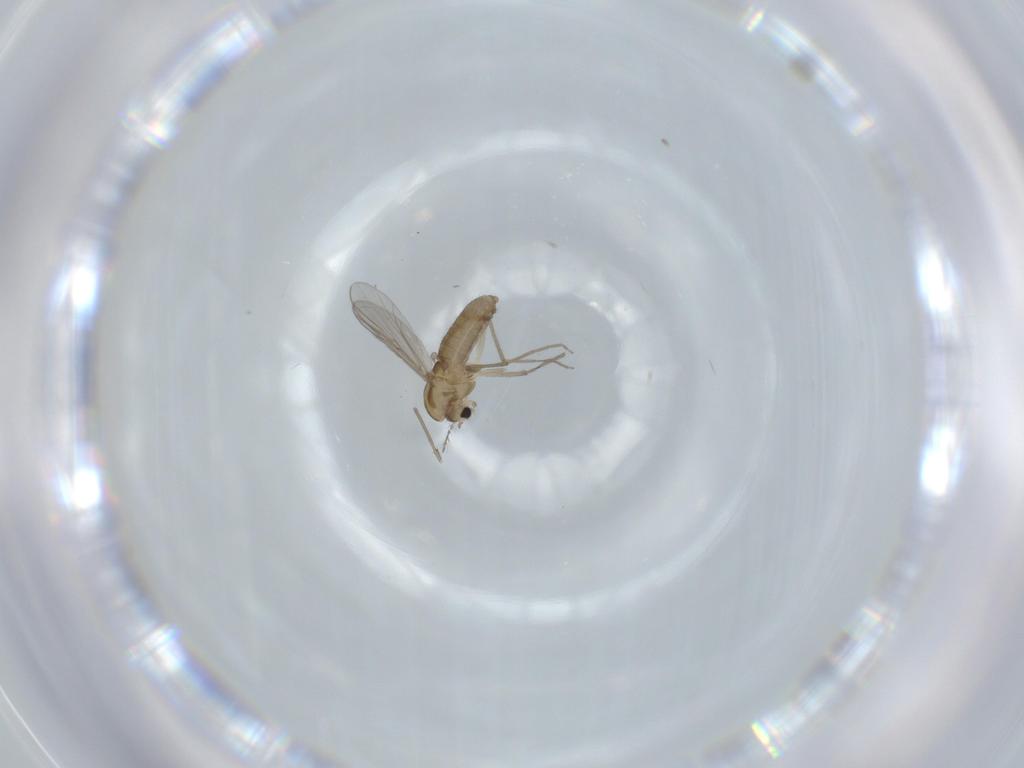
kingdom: Animalia
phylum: Arthropoda
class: Insecta
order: Diptera
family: Chironomidae
